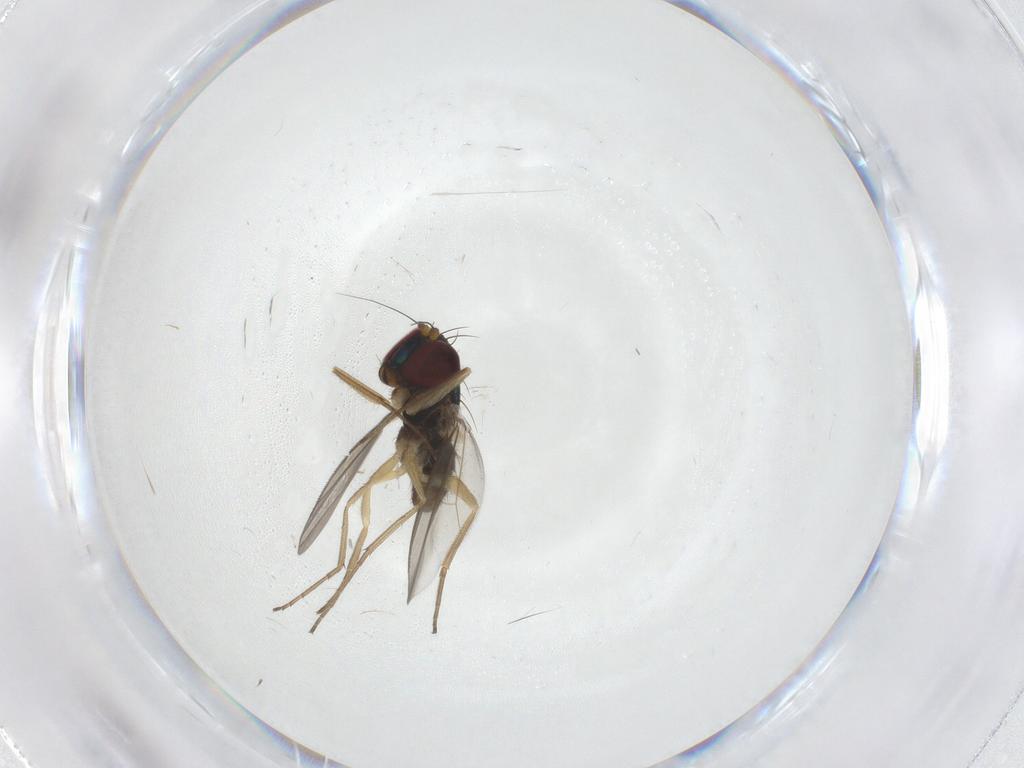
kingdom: Animalia
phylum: Arthropoda
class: Insecta
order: Diptera
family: Dolichopodidae
